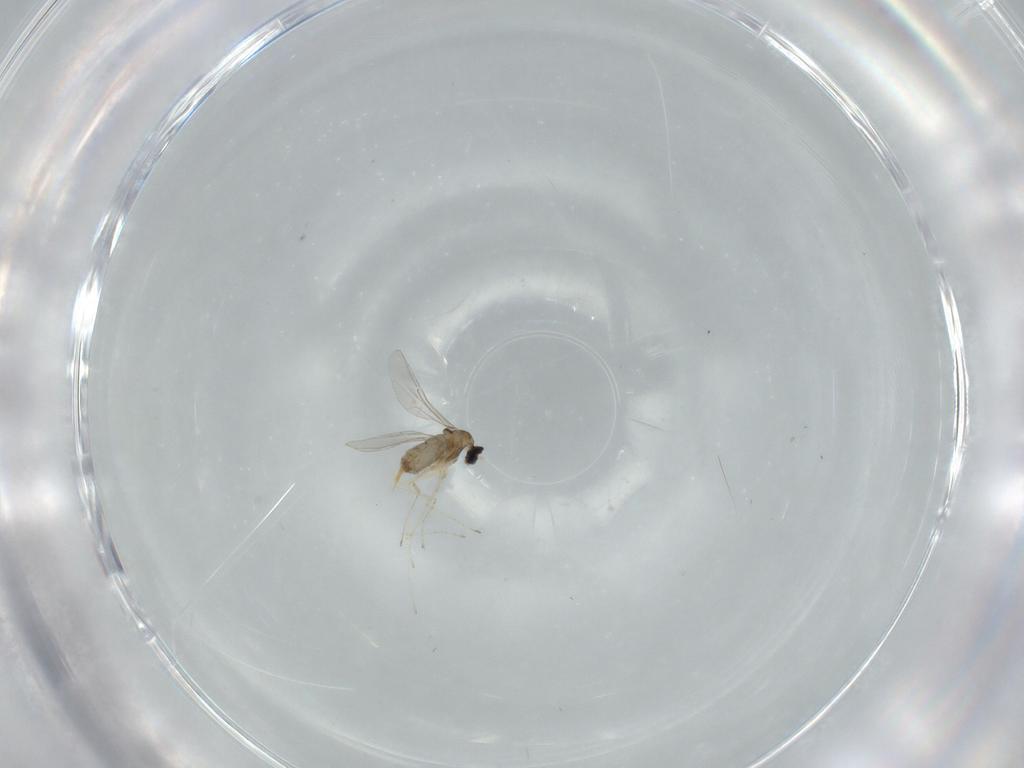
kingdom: Animalia
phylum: Arthropoda
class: Insecta
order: Diptera
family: Cecidomyiidae
